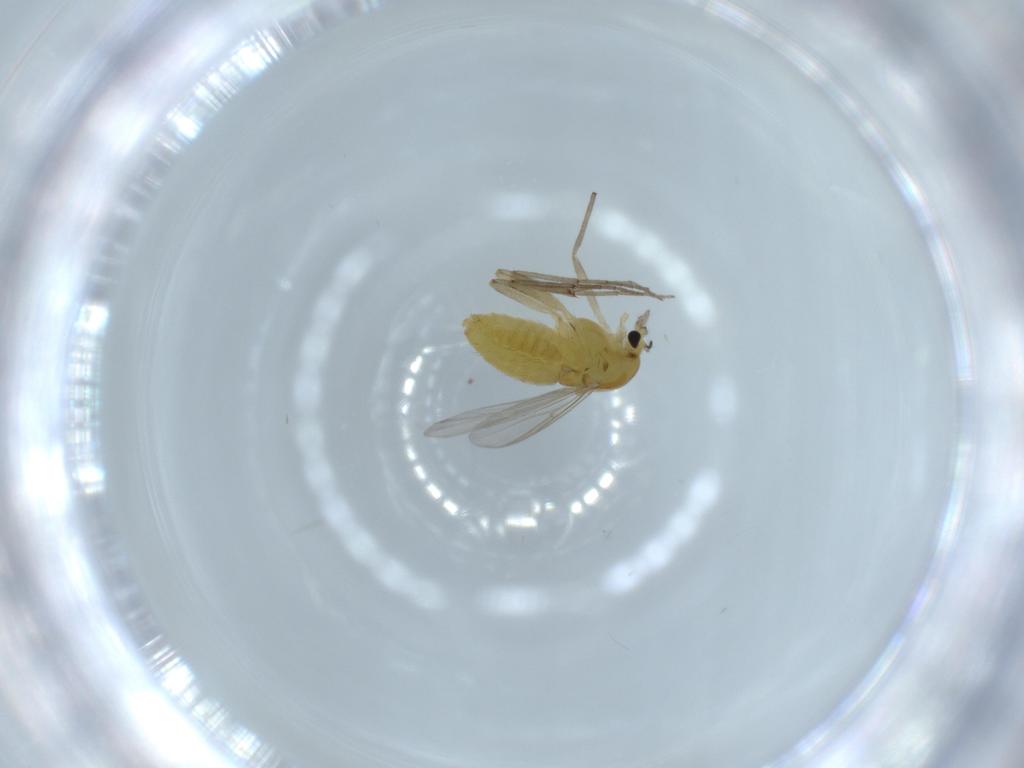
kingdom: Animalia
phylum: Arthropoda
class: Insecta
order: Diptera
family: Chironomidae
